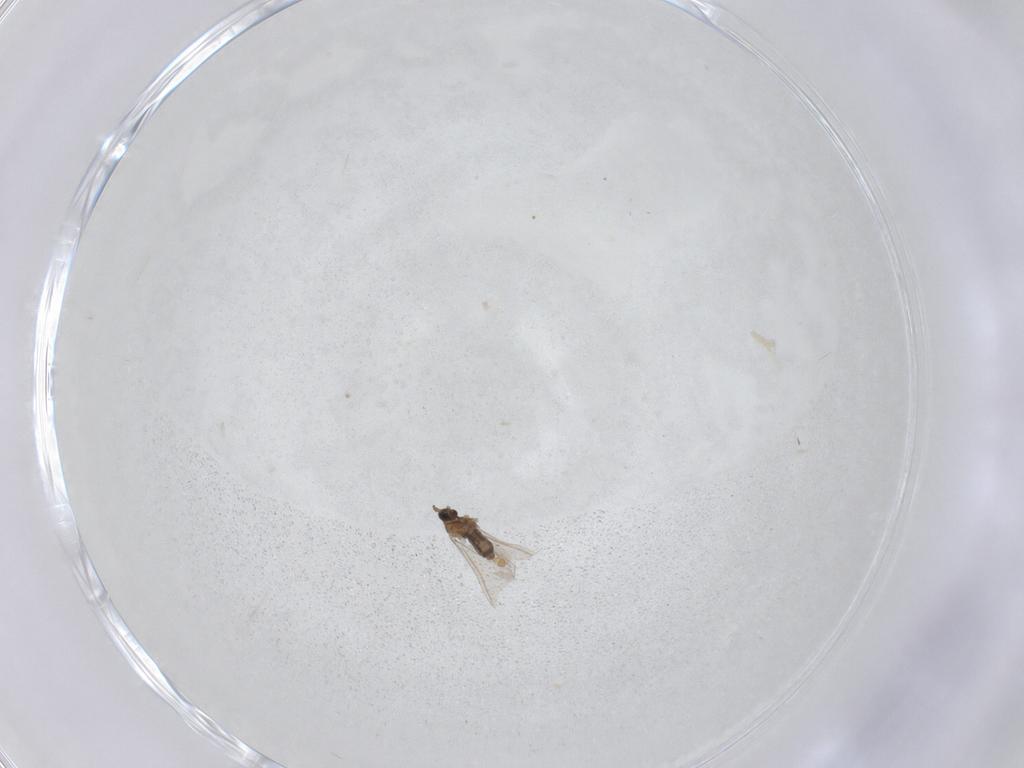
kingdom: Animalia
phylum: Arthropoda
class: Insecta
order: Diptera
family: Cecidomyiidae
